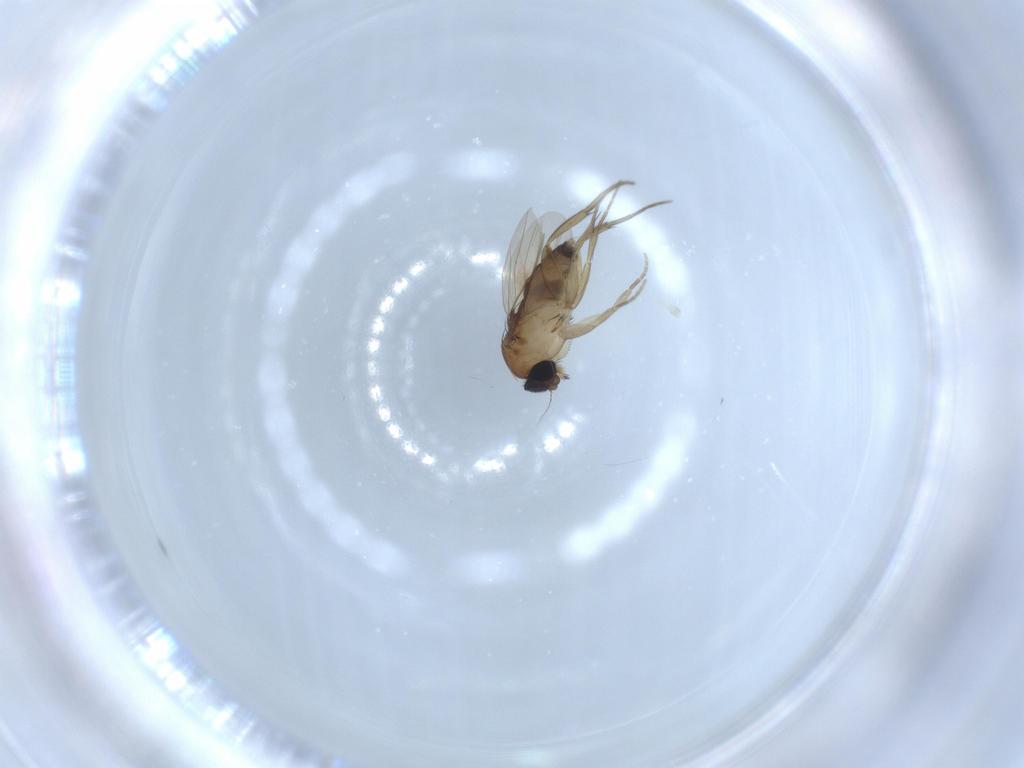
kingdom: Animalia
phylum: Arthropoda
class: Insecta
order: Diptera
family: Phoridae
